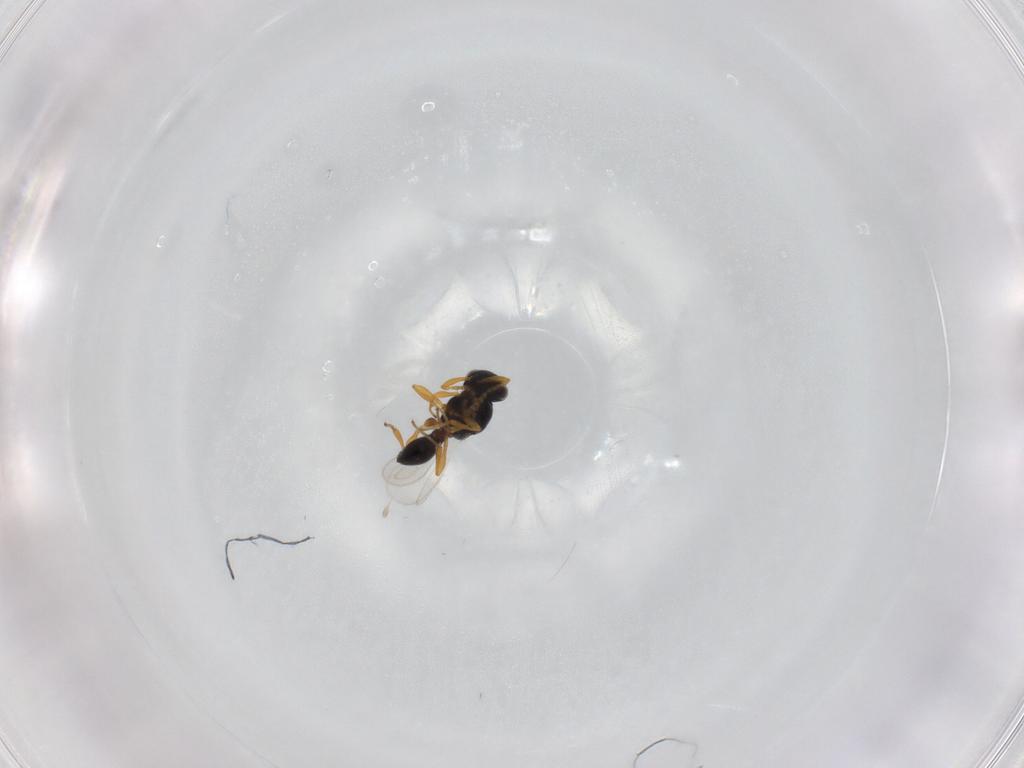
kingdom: Animalia
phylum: Arthropoda
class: Insecta
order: Hymenoptera
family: Platygastridae
